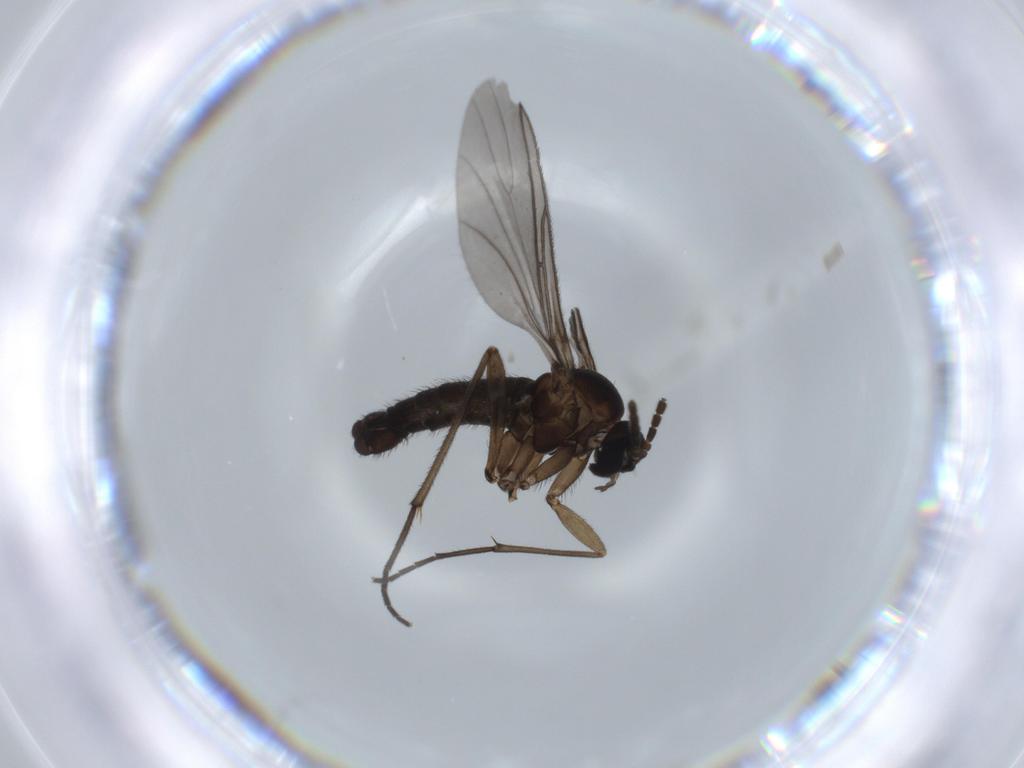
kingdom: Animalia
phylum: Arthropoda
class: Insecta
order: Diptera
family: Sciaridae
